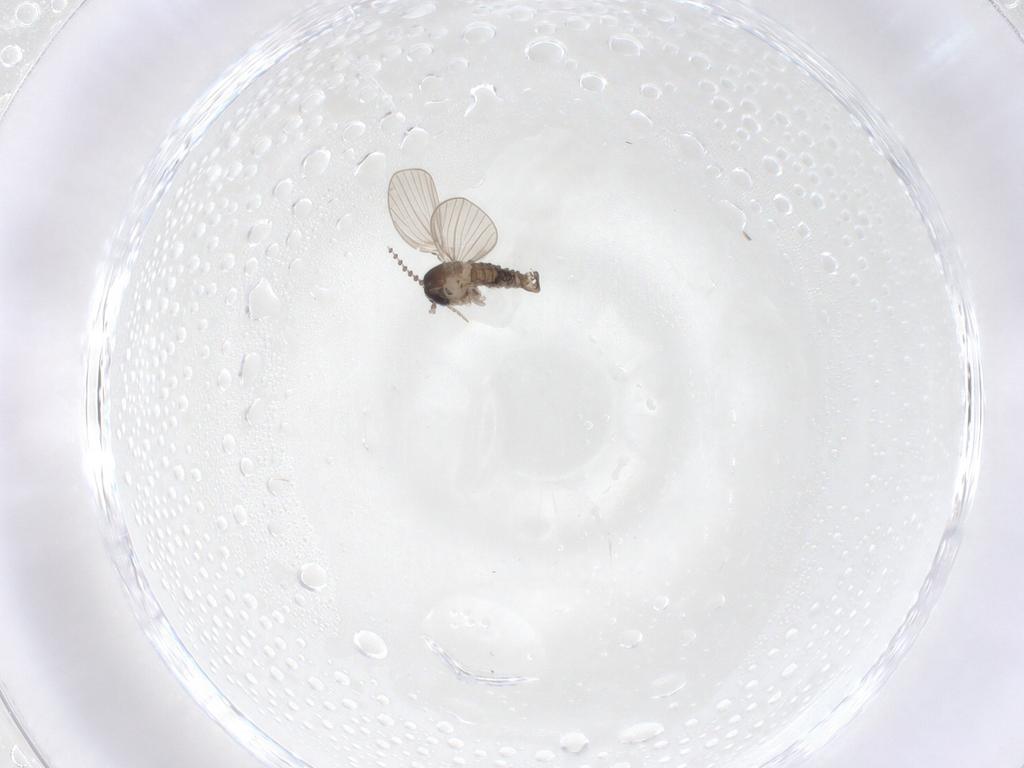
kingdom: Animalia
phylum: Arthropoda
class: Insecta
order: Diptera
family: Psychodidae
